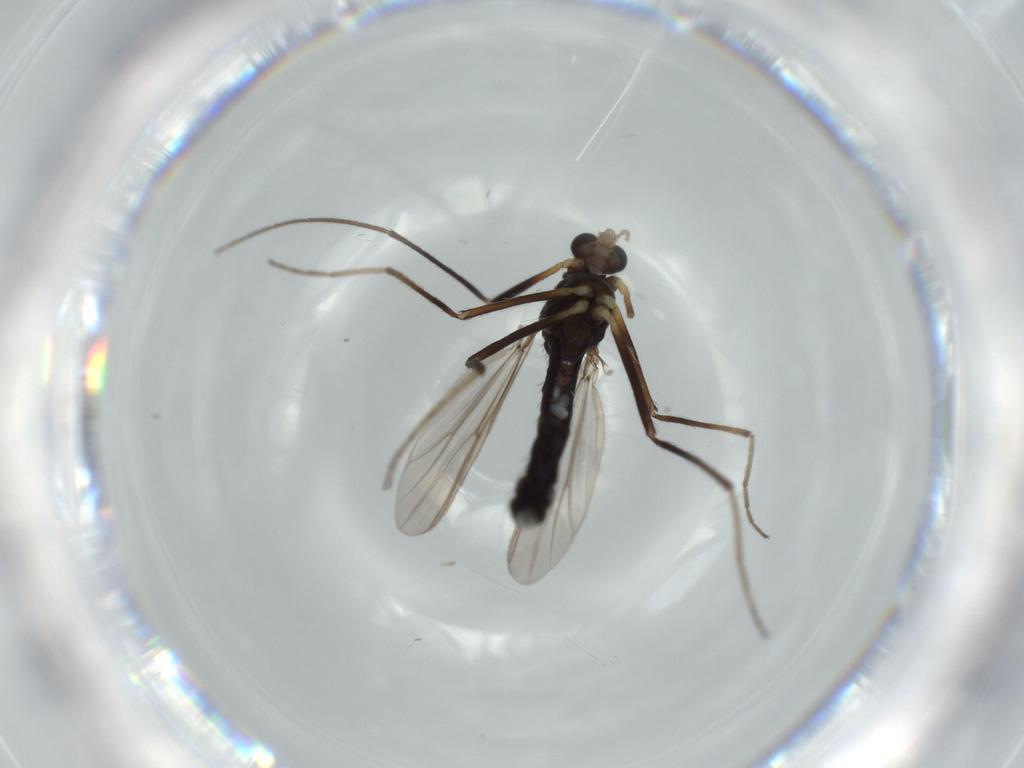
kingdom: Animalia
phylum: Arthropoda
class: Insecta
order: Diptera
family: Chironomidae
